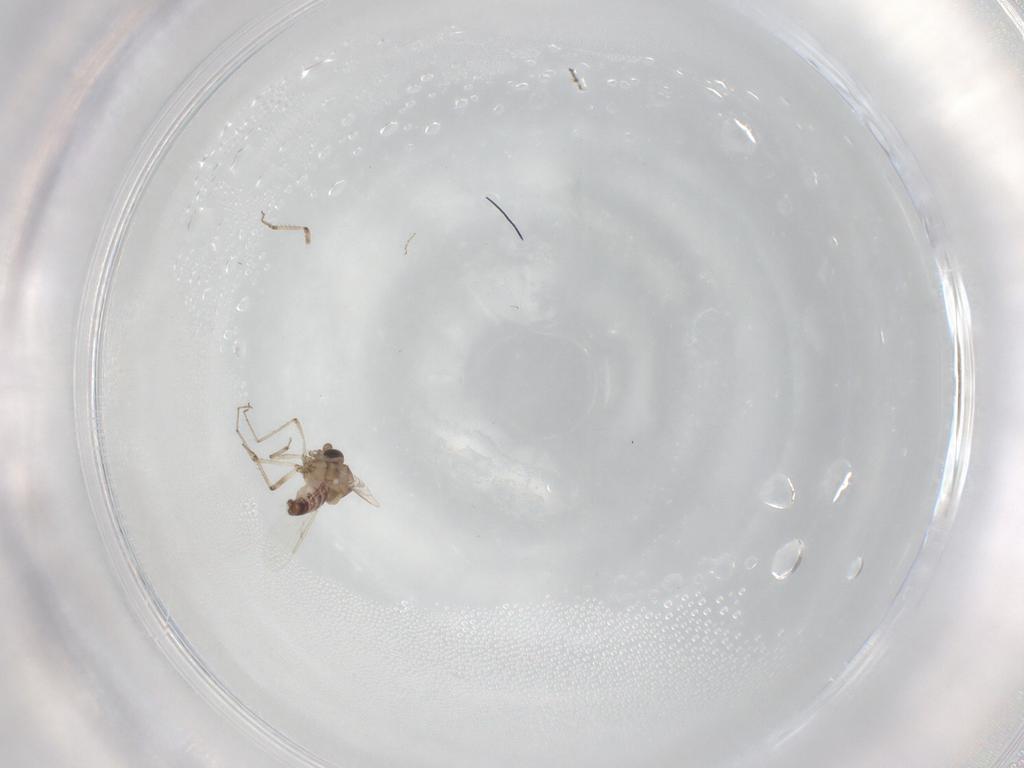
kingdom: Animalia
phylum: Arthropoda
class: Insecta
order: Diptera
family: Ceratopogonidae
